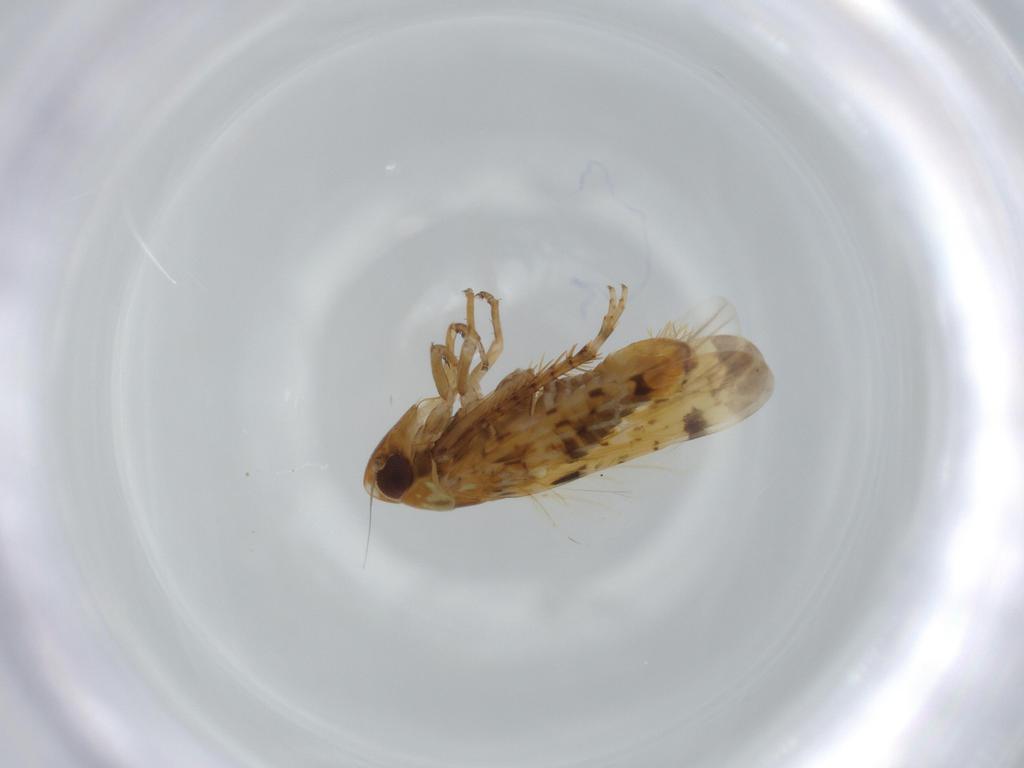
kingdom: Animalia
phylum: Arthropoda
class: Insecta
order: Hemiptera
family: Cicadellidae
